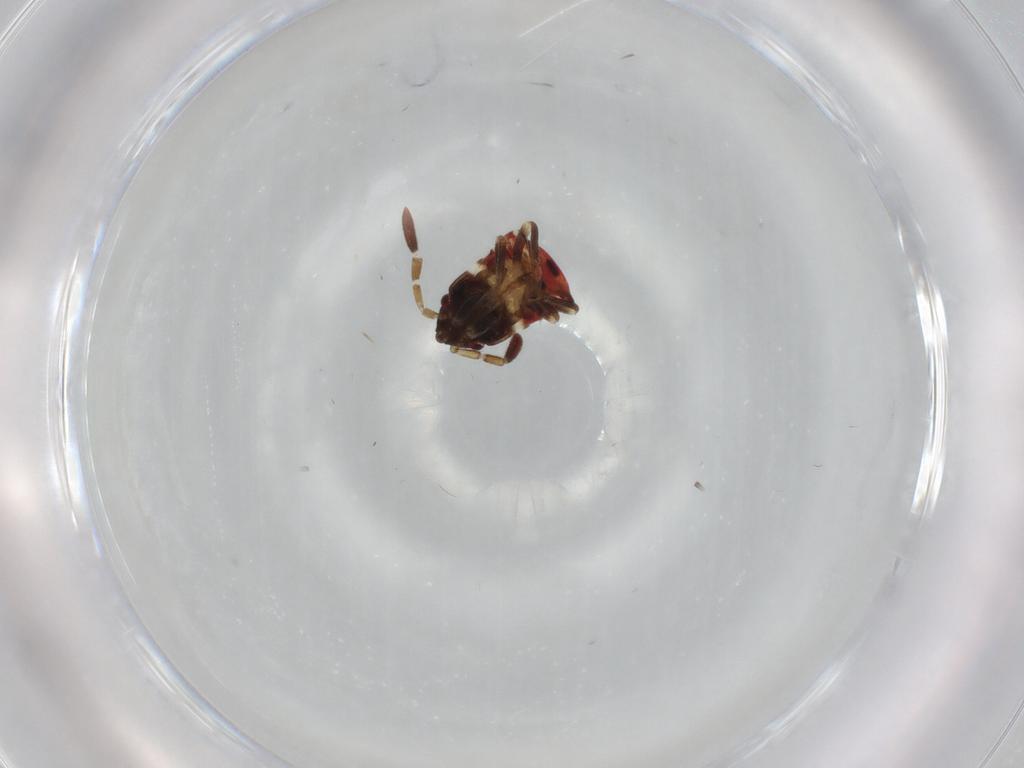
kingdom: Animalia
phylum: Arthropoda
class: Insecta
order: Hemiptera
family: Rhyparochromidae
